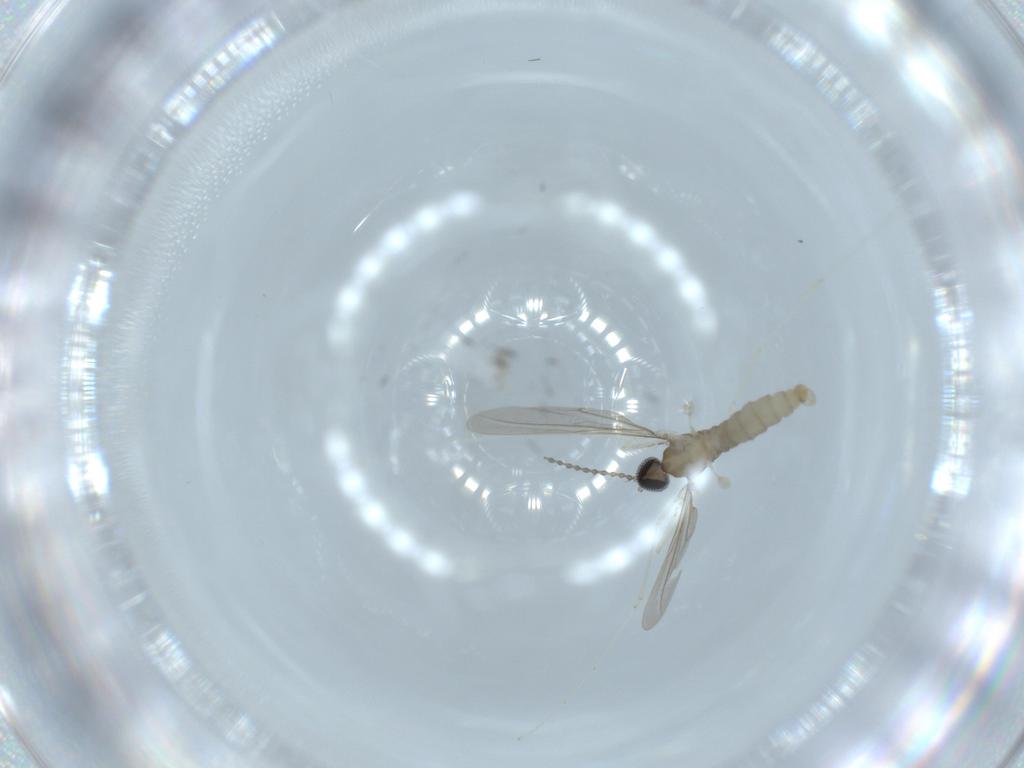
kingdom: Animalia
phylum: Arthropoda
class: Insecta
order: Diptera
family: Cecidomyiidae
